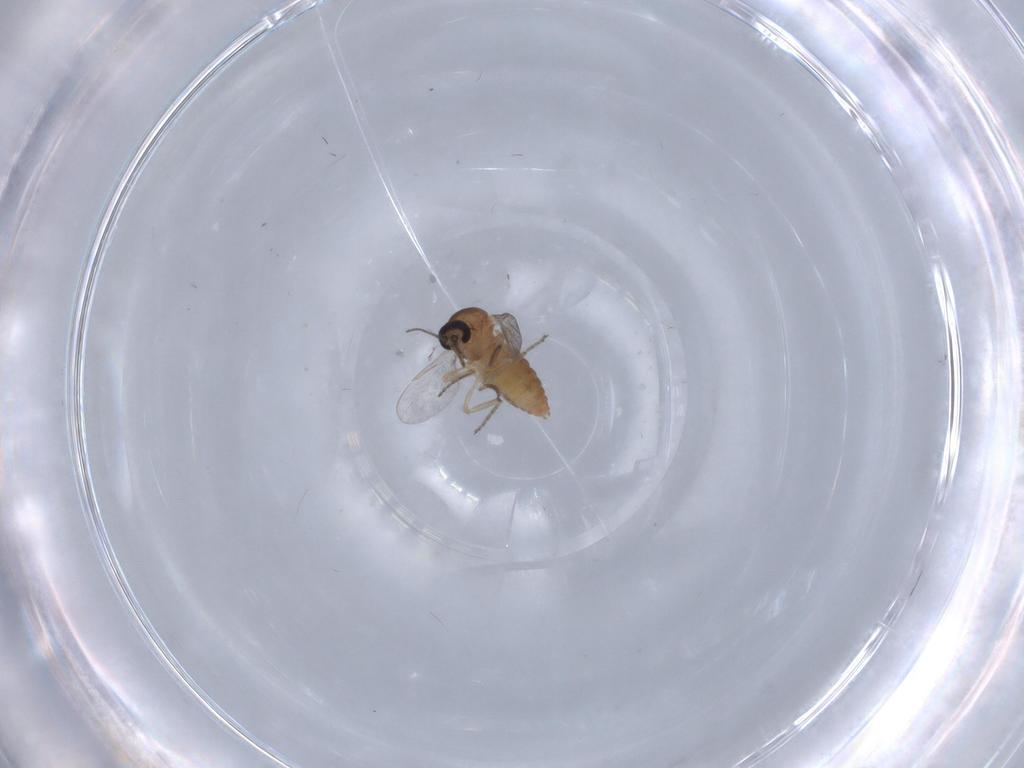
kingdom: Animalia
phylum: Arthropoda
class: Insecta
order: Diptera
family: Ceratopogonidae
